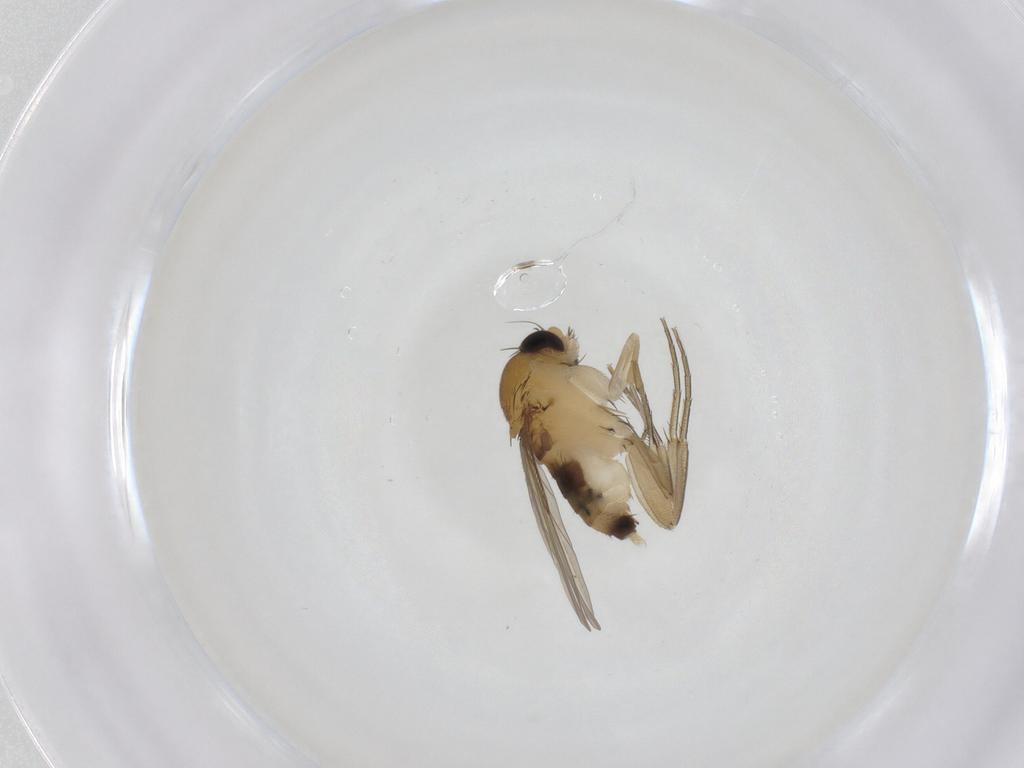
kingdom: Animalia
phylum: Arthropoda
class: Insecta
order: Diptera
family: Phoridae
